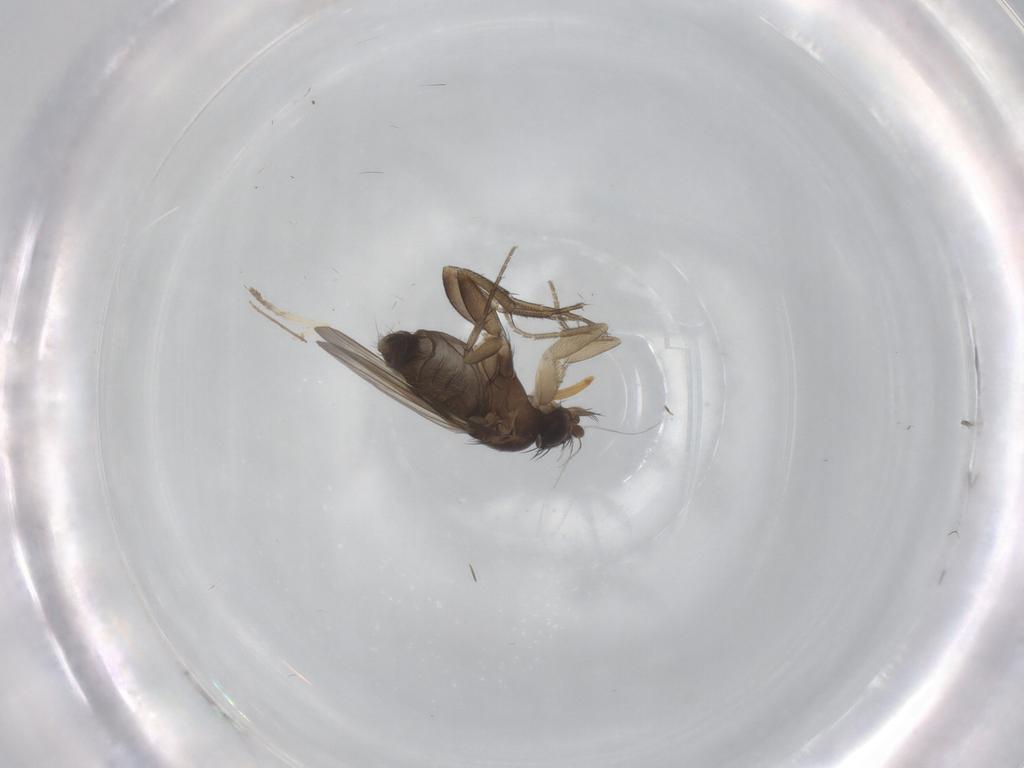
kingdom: Animalia
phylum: Arthropoda
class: Insecta
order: Diptera
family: Phoridae
